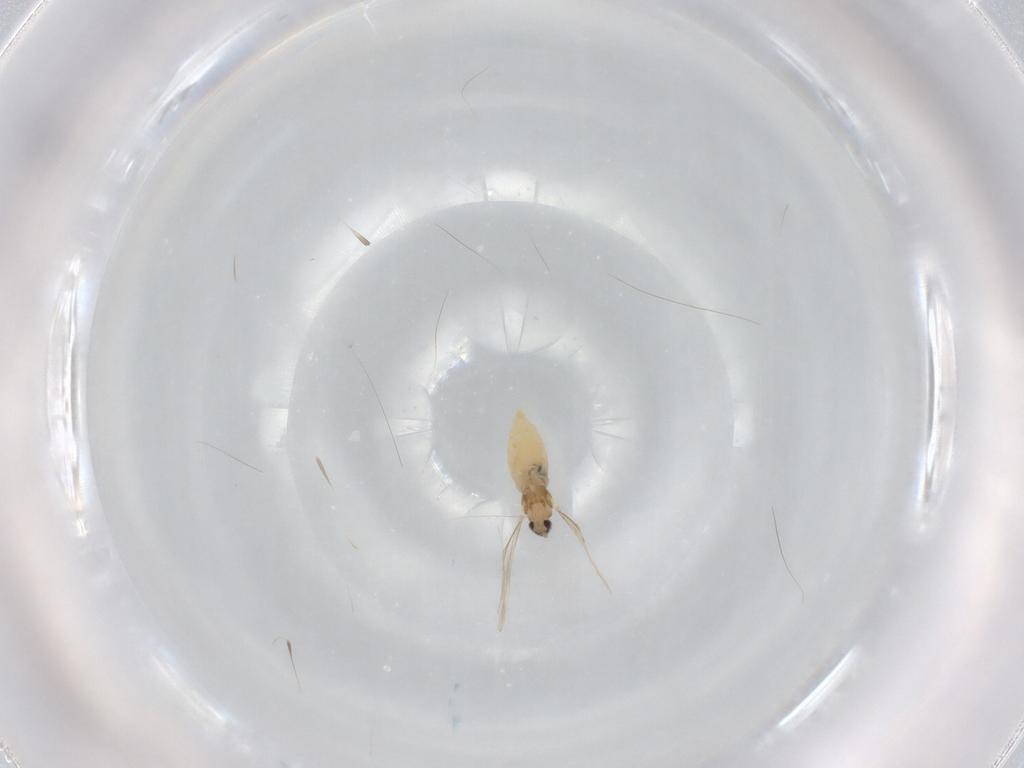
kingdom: Animalia
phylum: Arthropoda
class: Insecta
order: Diptera
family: Cecidomyiidae
